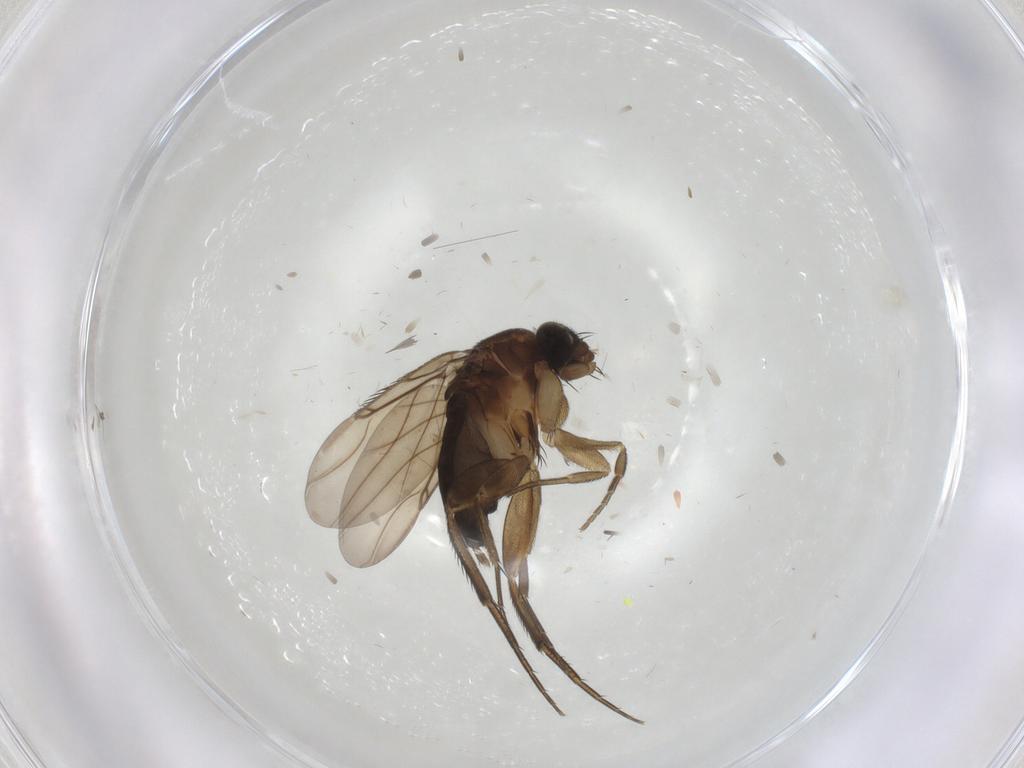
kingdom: Animalia
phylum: Arthropoda
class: Insecta
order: Diptera
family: Phoridae
